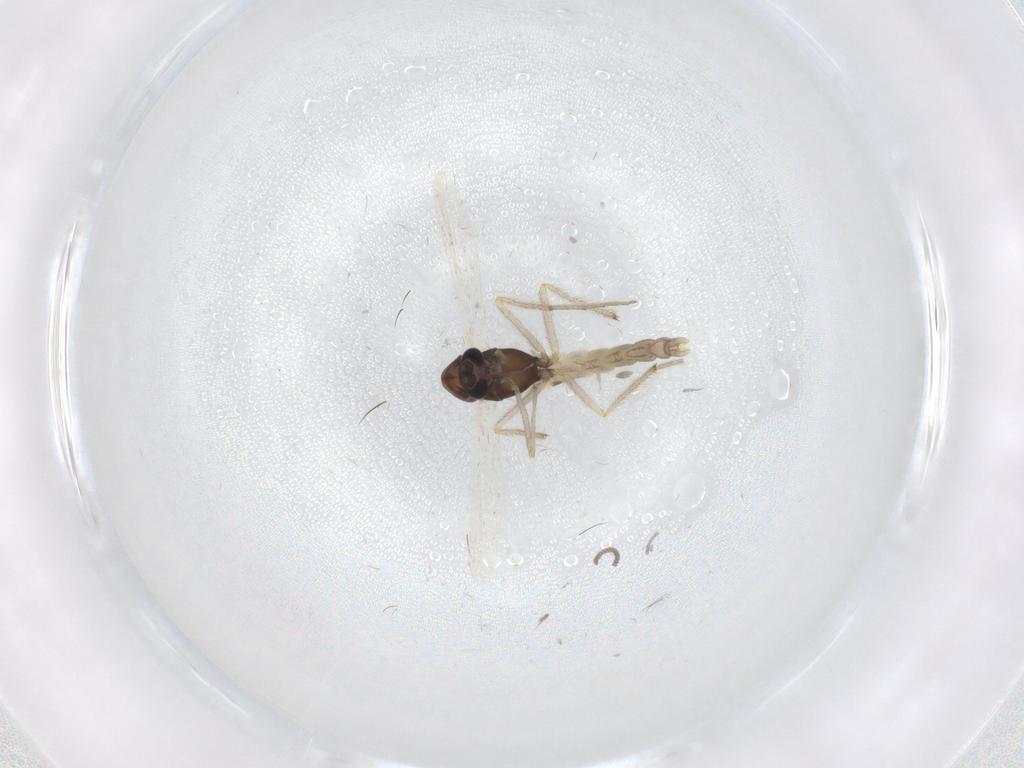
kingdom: Animalia
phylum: Arthropoda
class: Insecta
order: Diptera
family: Chironomidae
